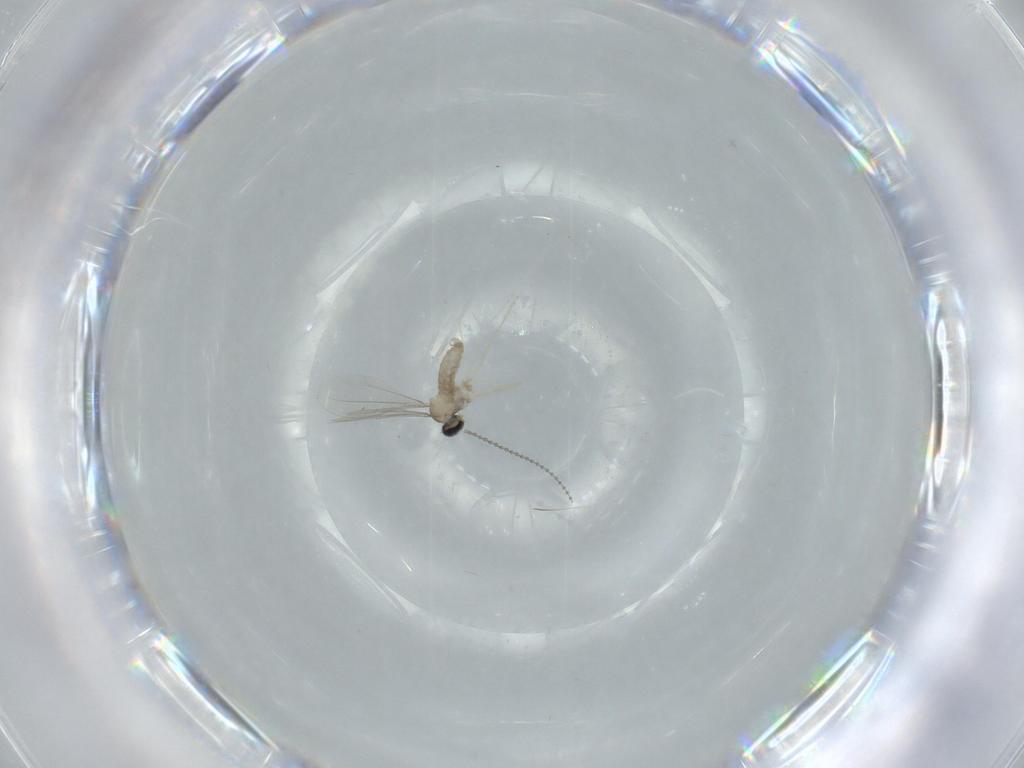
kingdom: Animalia
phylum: Arthropoda
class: Insecta
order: Diptera
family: Cecidomyiidae
